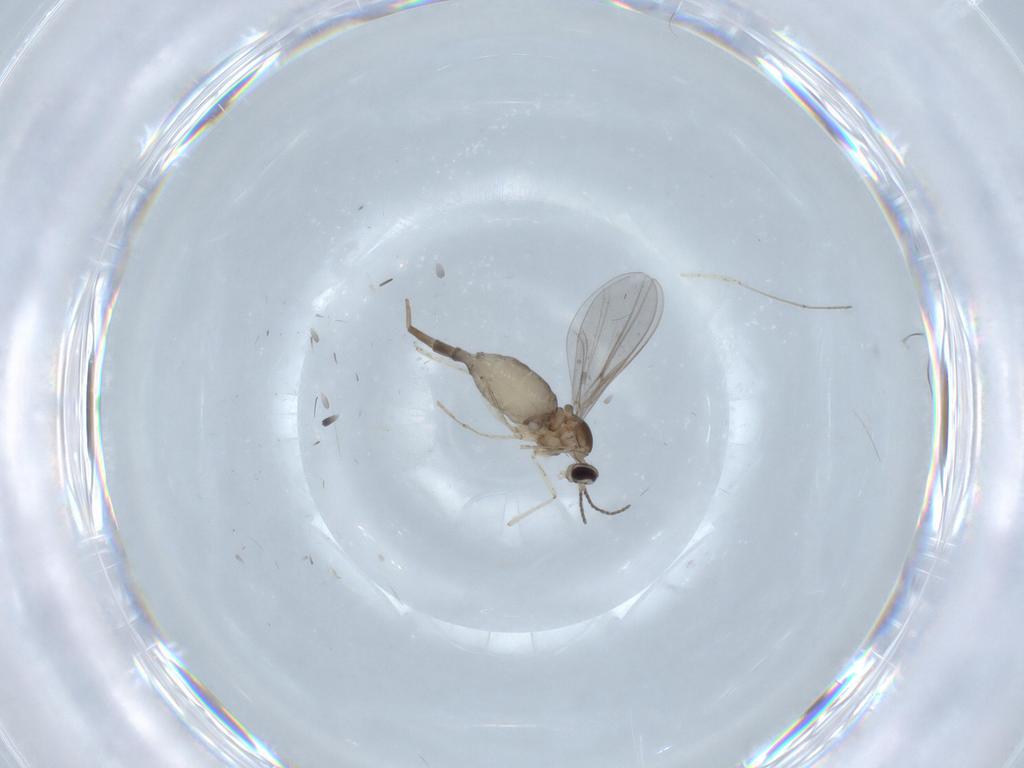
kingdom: Animalia
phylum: Arthropoda
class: Insecta
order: Diptera
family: Cecidomyiidae
